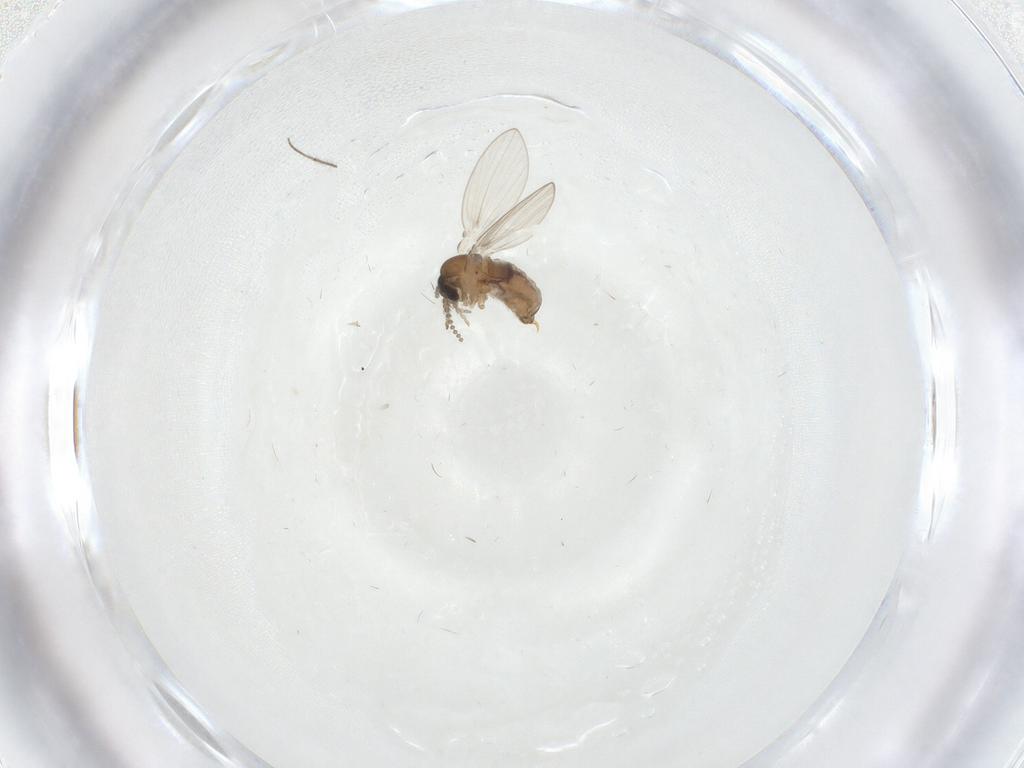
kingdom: Animalia
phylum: Arthropoda
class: Insecta
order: Diptera
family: Psychodidae
